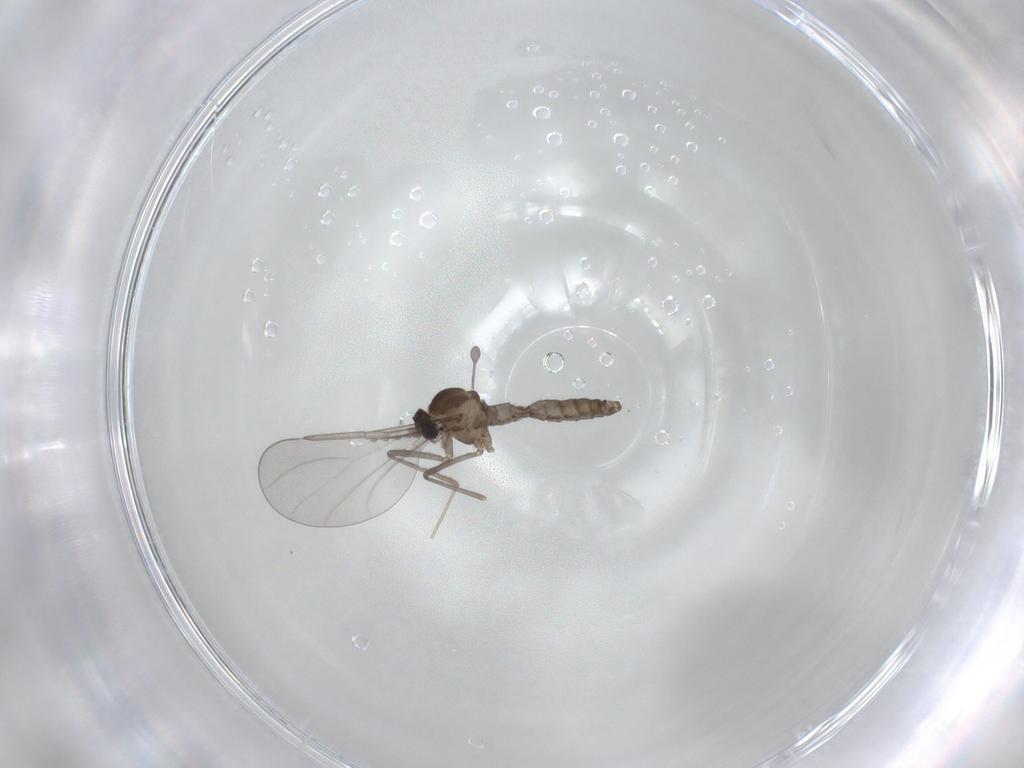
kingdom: Animalia
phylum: Arthropoda
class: Insecta
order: Diptera
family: Cecidomyiidae
